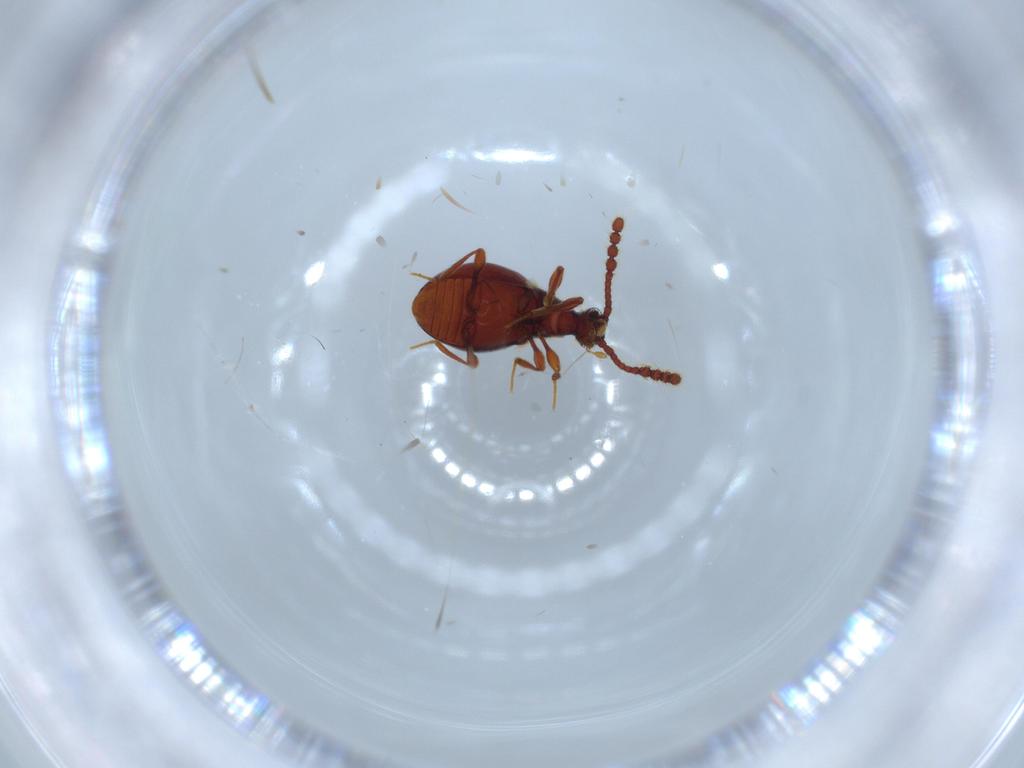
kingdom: Animalia
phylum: Arthropoda
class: Insecta
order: Coleoptera
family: Staphylinidae
